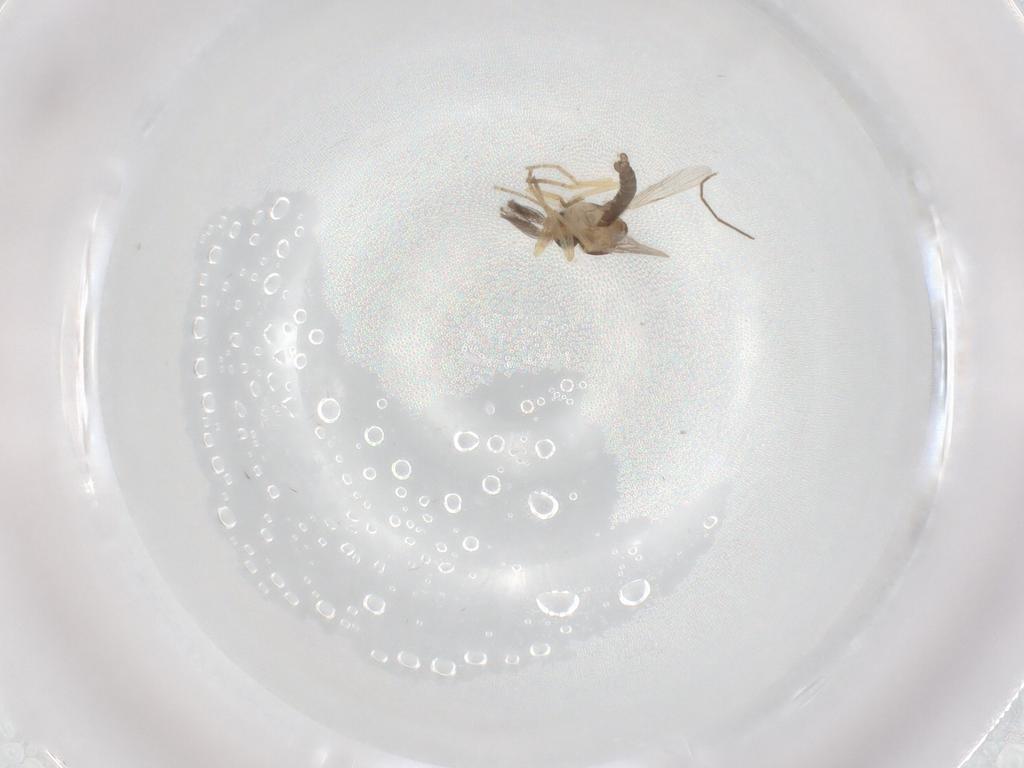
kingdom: Animalia
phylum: Arthropoda
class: Insecta
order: Diptera
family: Ceratopogonidae
